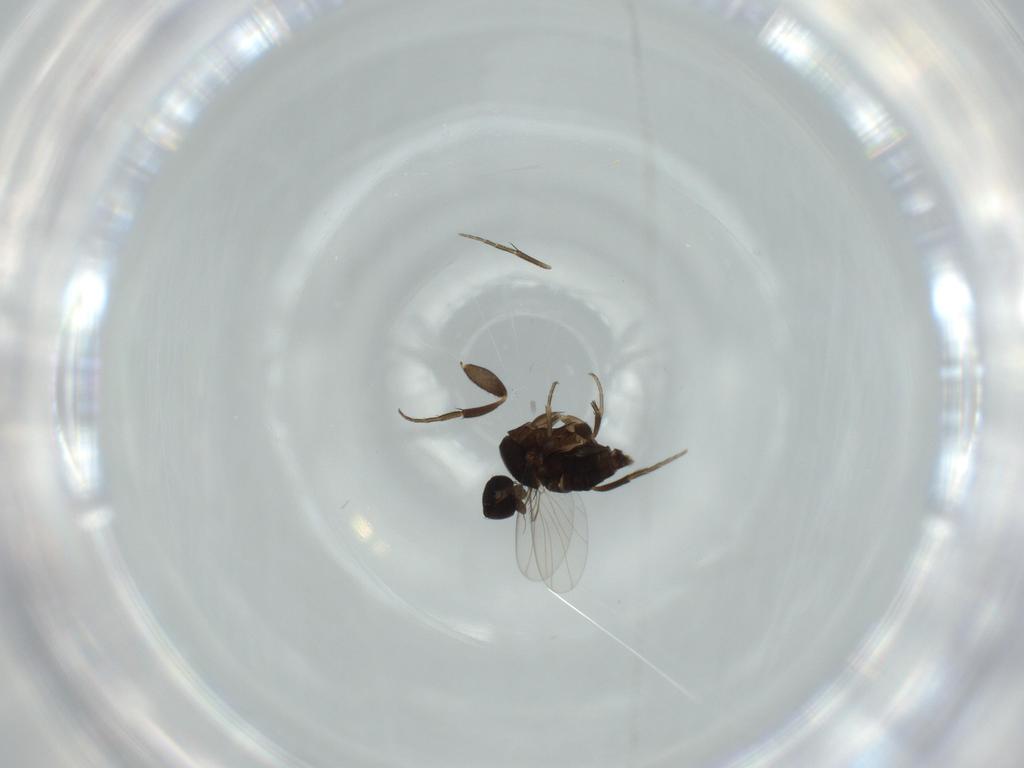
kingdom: Animalia
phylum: Arthropoda
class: Insecta
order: Diptera
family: Phoridae
